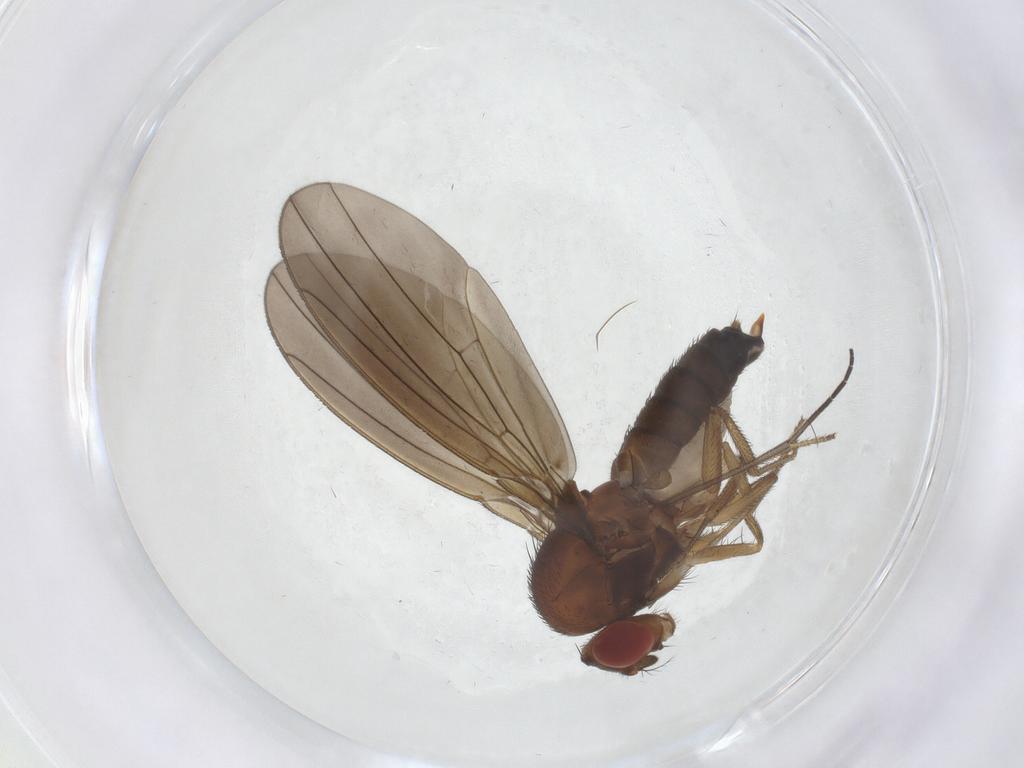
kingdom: Animalia
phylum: Arthropoda
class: Insecta
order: Diptera
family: Drosophilidae
